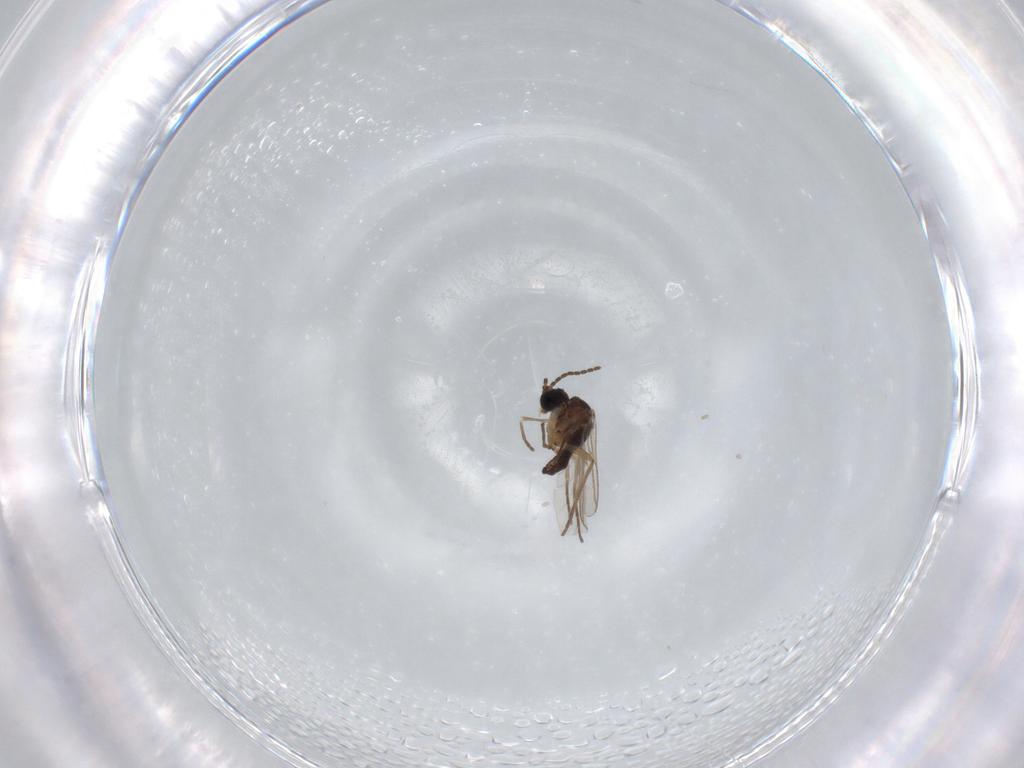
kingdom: Animalia
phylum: Arthropoda
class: Insecta
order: Diptera
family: Sciaridae
